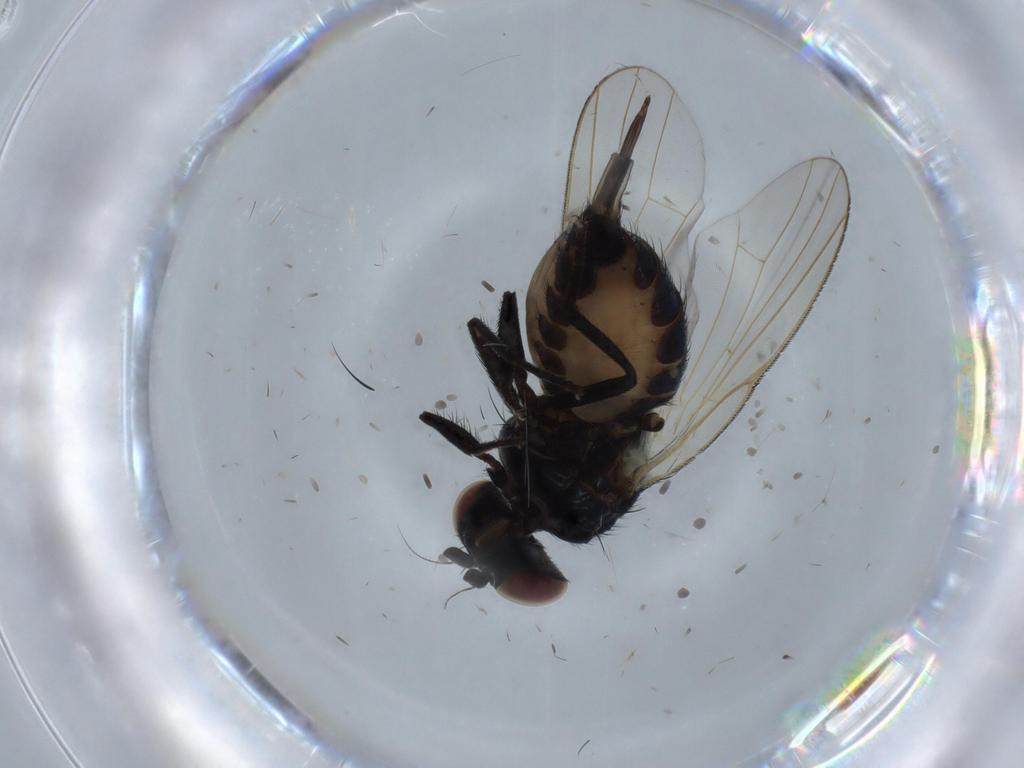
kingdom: Animalia
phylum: Arthropoda
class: Insecta
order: Diptera
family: Lonchaeidae
